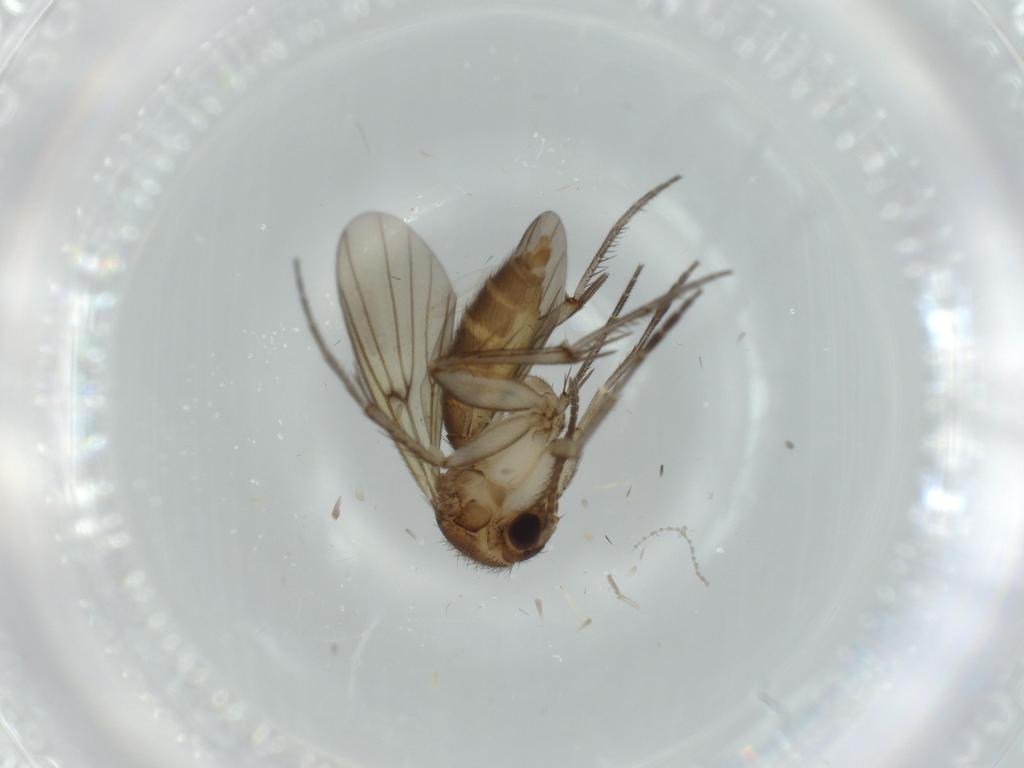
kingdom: Animalia
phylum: Arthropoda
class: Insecta
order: Diptera
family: Mycetophilidae
